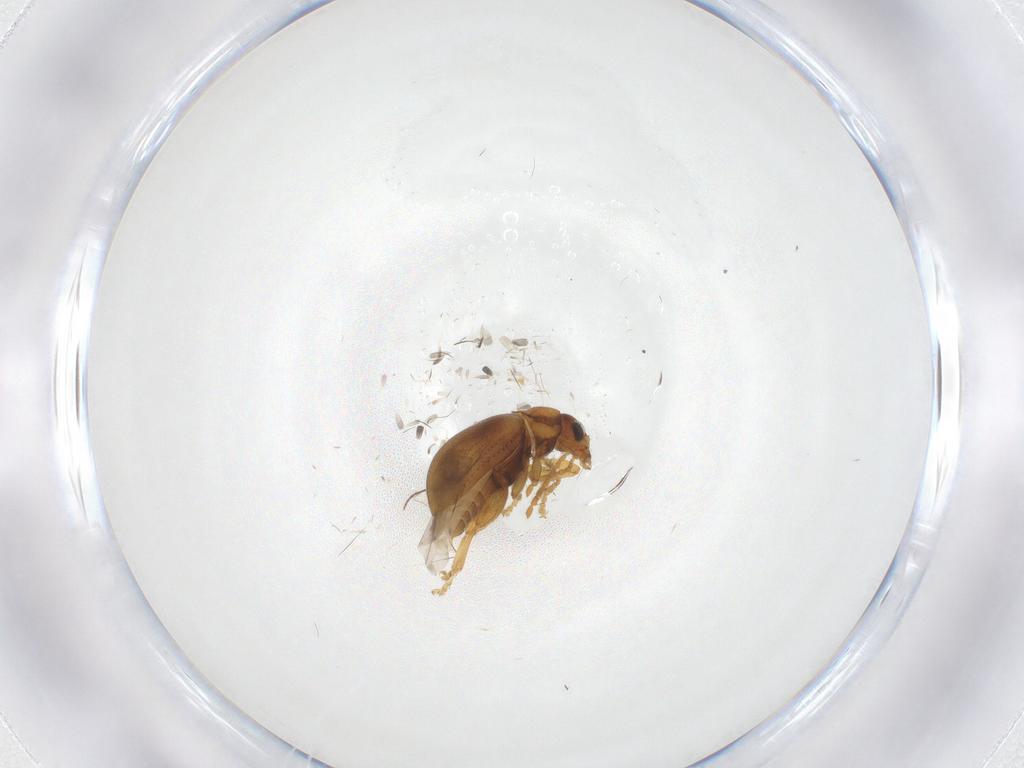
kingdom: Animalia
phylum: Arthropoda
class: Insecta
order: Coleoptera
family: Chrysomelidae
